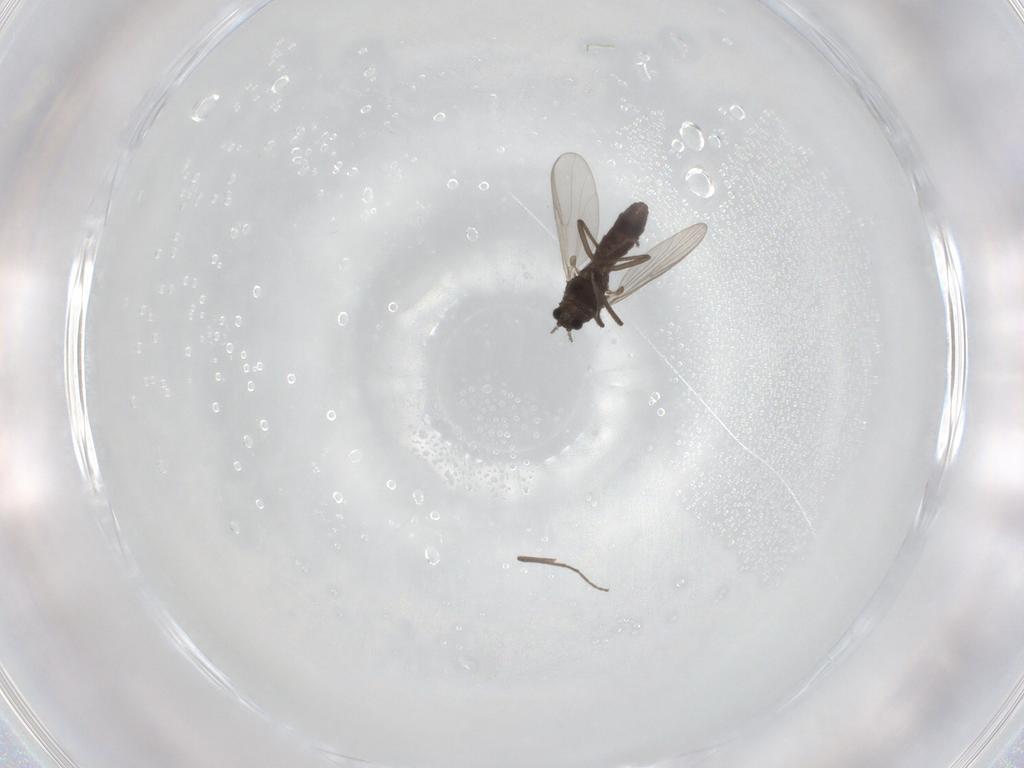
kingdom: Animalia
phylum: Arthropoda
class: Insecta
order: Diptera
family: Chironomidae
